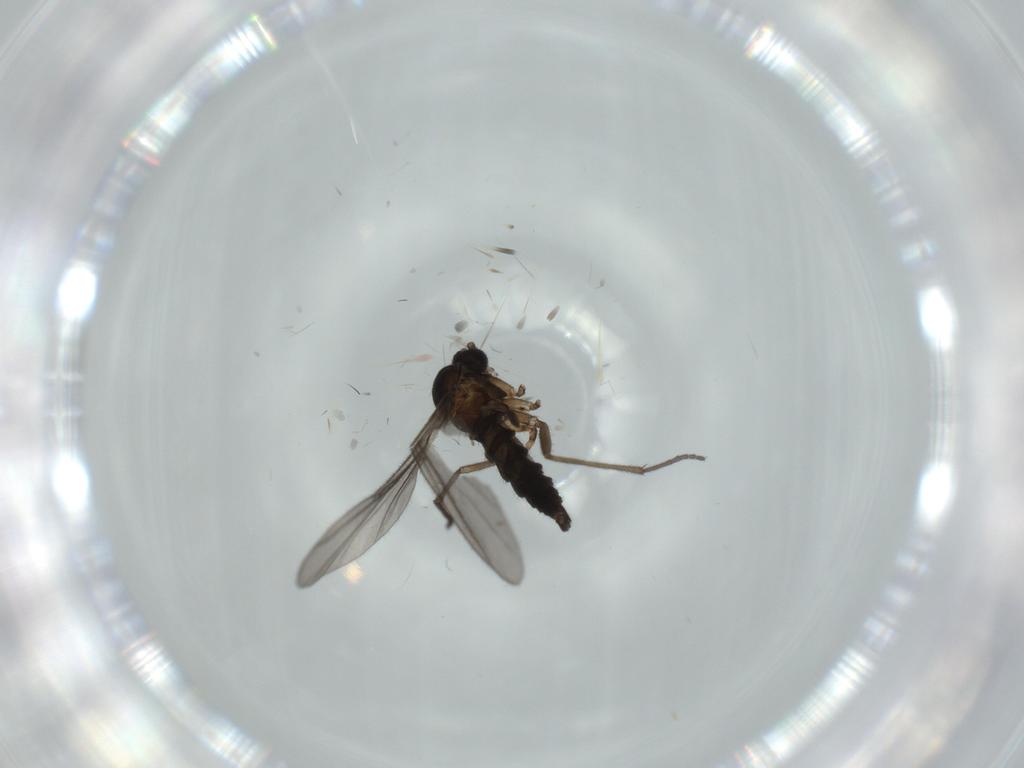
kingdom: Animalia
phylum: Arthropoda
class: Insecta
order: Diptera
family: Sciaridae
